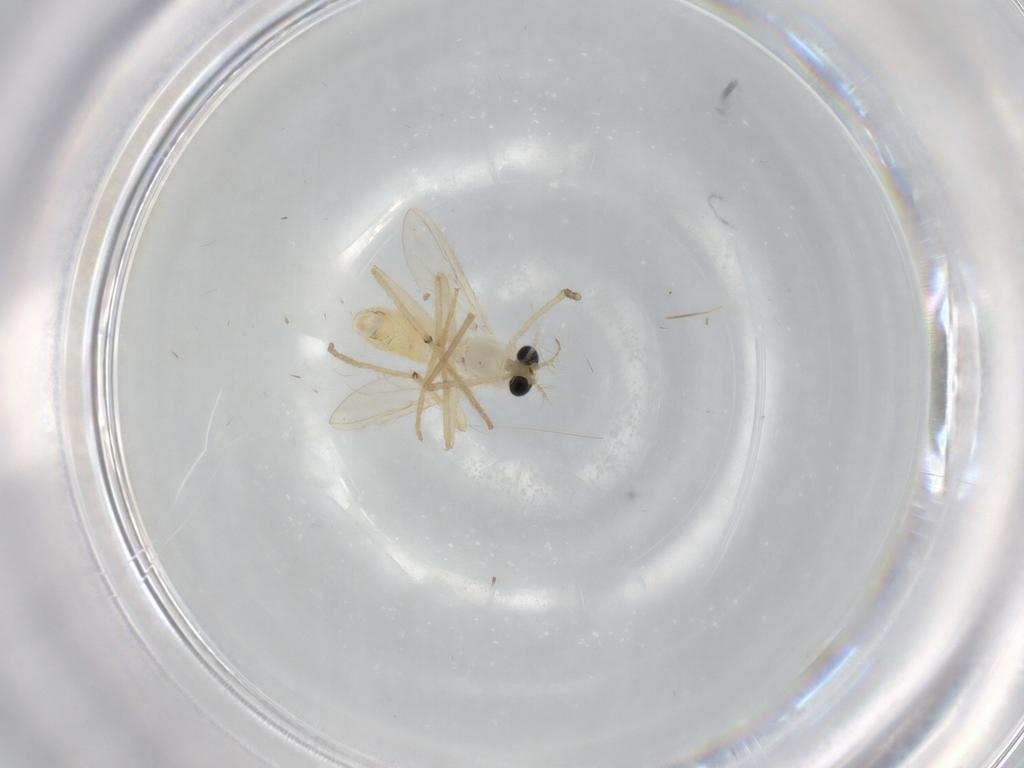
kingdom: Animalia
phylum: Arthropoda
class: Insecta
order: Diptera
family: Chironomidae
